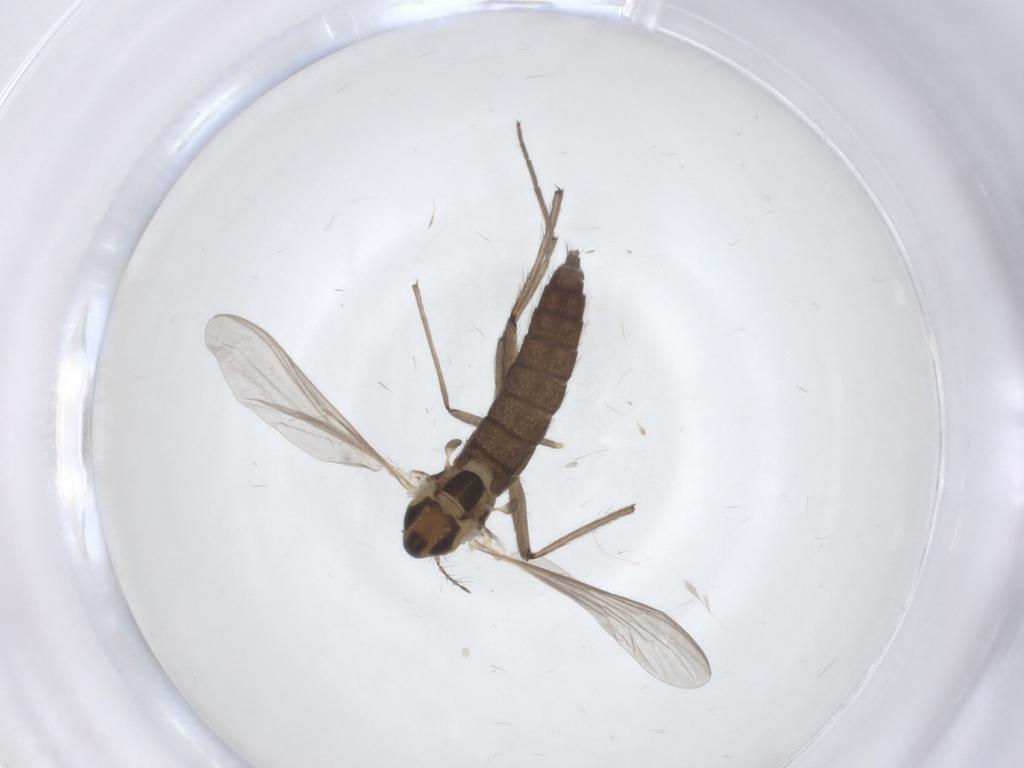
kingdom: Animalia
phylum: Arthropoda
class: Insecta
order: Diptera
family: Chironomidae
